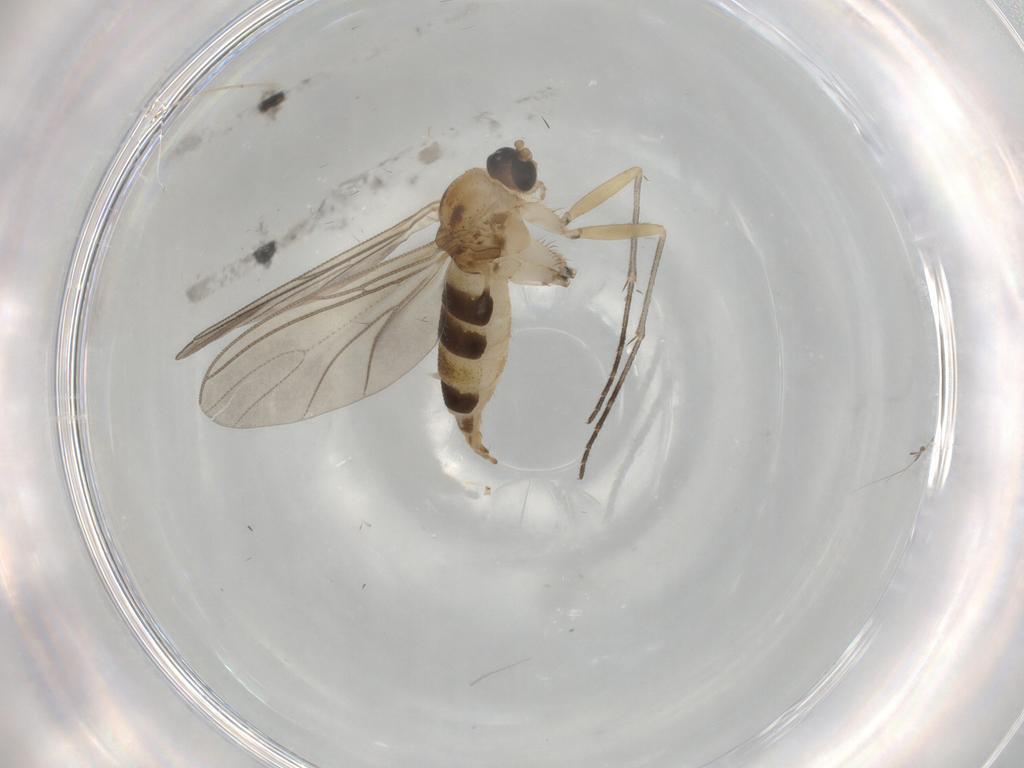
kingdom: Animalia
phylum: Arthropoda
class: Insecta
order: Diptera
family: Cecidomyiidae
